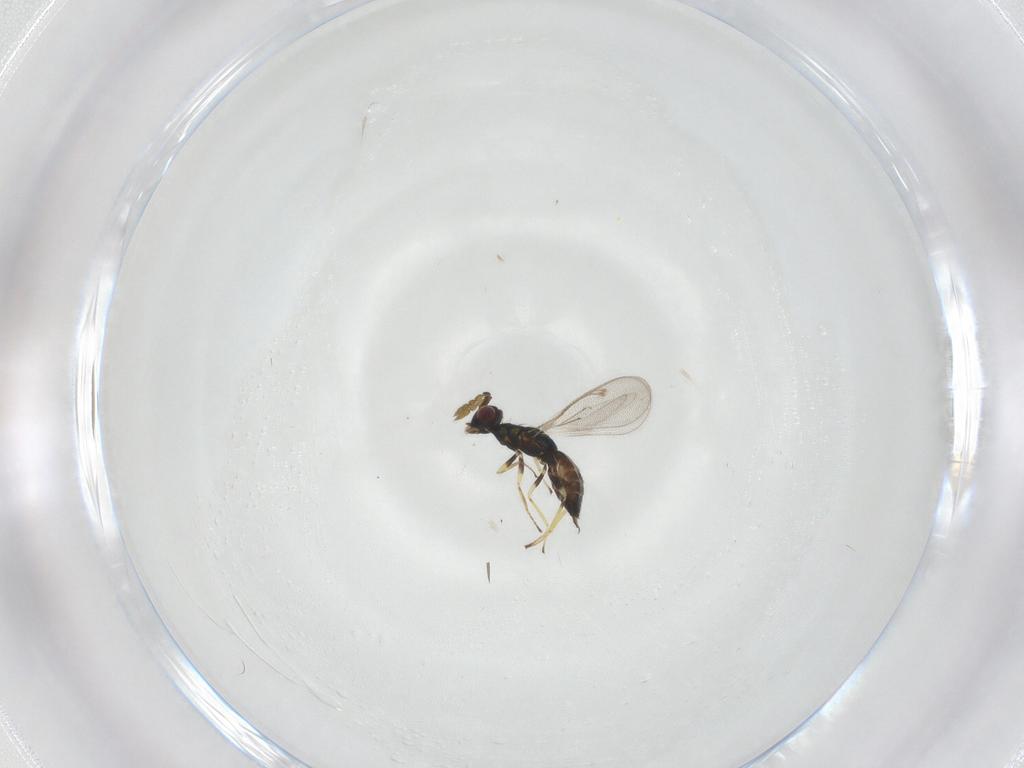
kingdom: Animalia
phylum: Arthropoda
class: Insecta
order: Hymenoptera
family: Eulophidae
